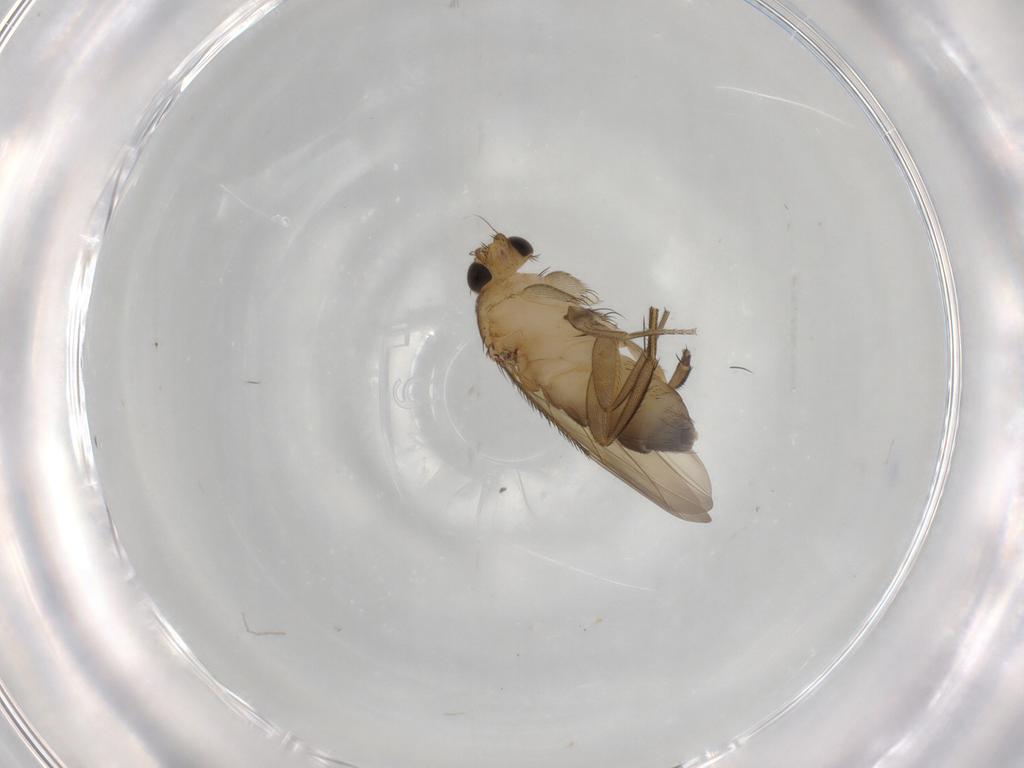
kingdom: Animalia
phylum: Arthropoda
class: Insecta
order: Diptera
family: Phoridae
